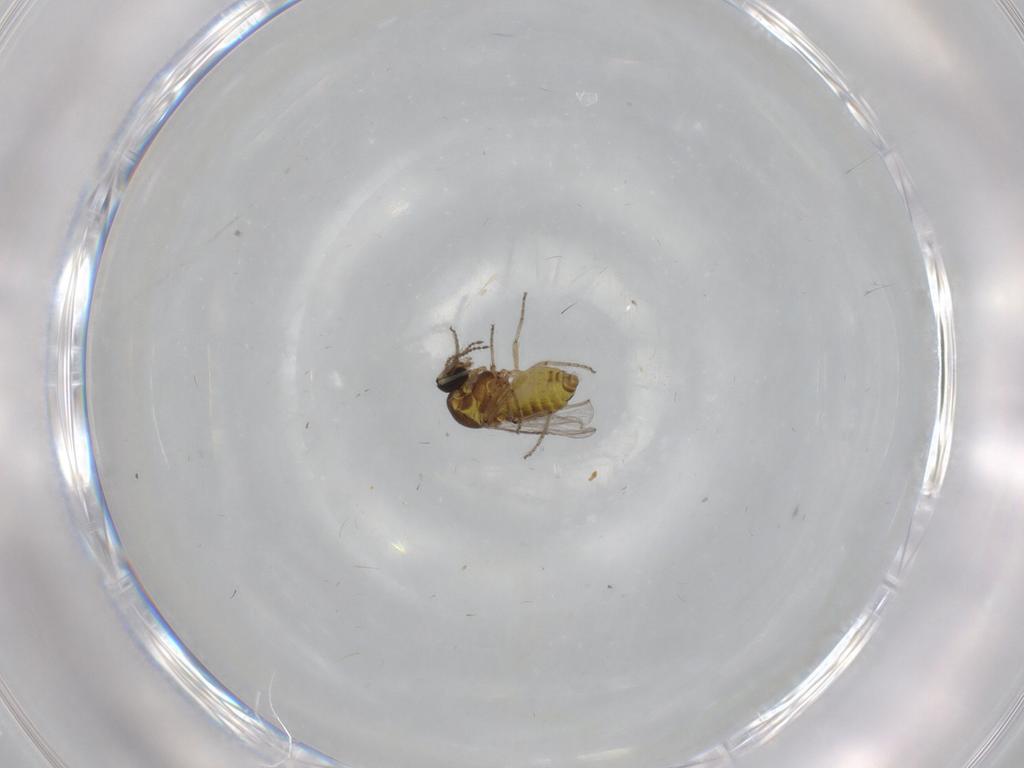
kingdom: Animalia
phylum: Arthropoda
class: Insecta
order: Diptera
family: Ceratopogonidae
